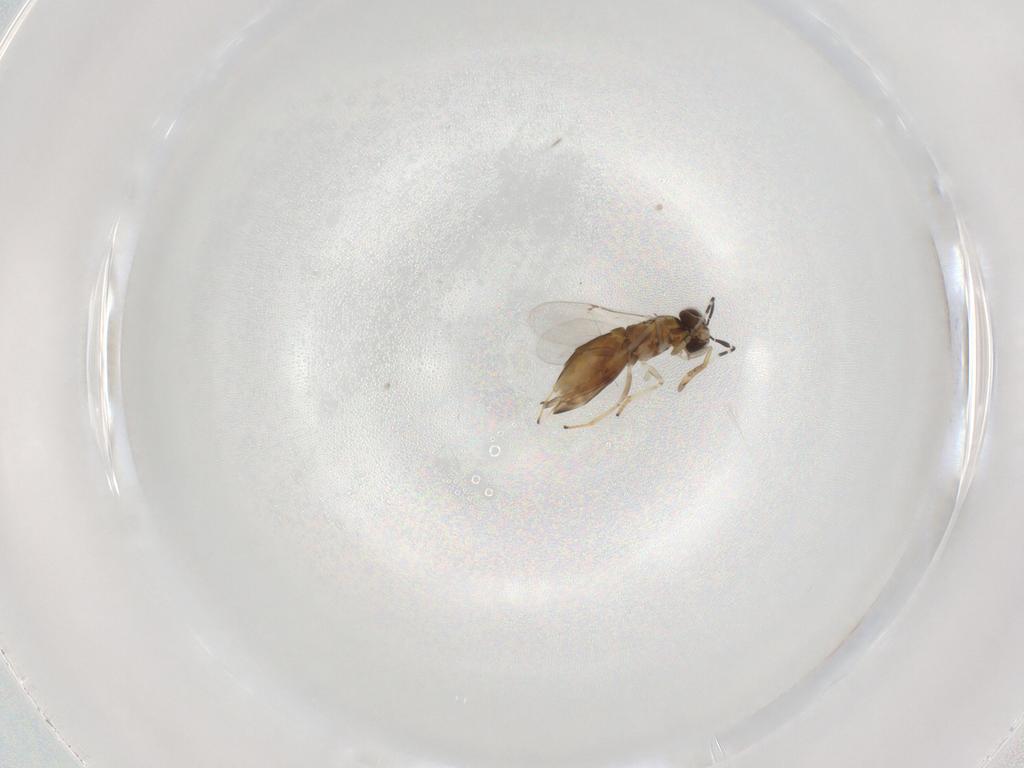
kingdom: Animalia
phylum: Arthropoda
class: Insecta
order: Hymenoptera
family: Encyrtidae
